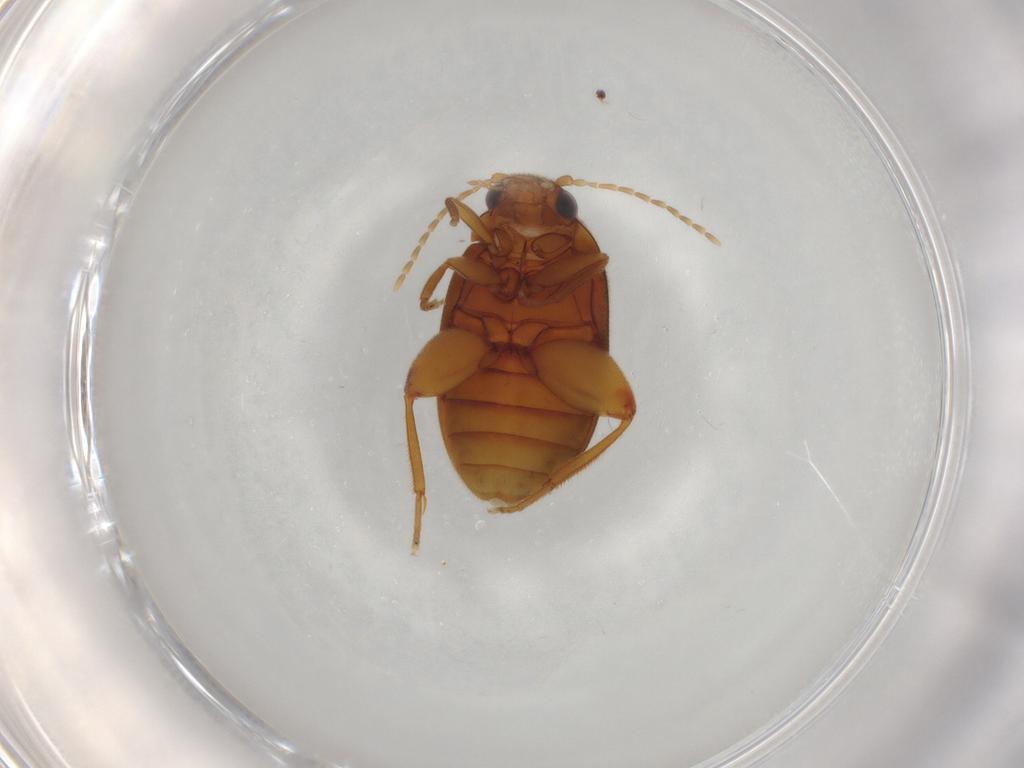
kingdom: Animalia
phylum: Arthropoda
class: Insecta
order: Coleoptera
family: Scirtidae
